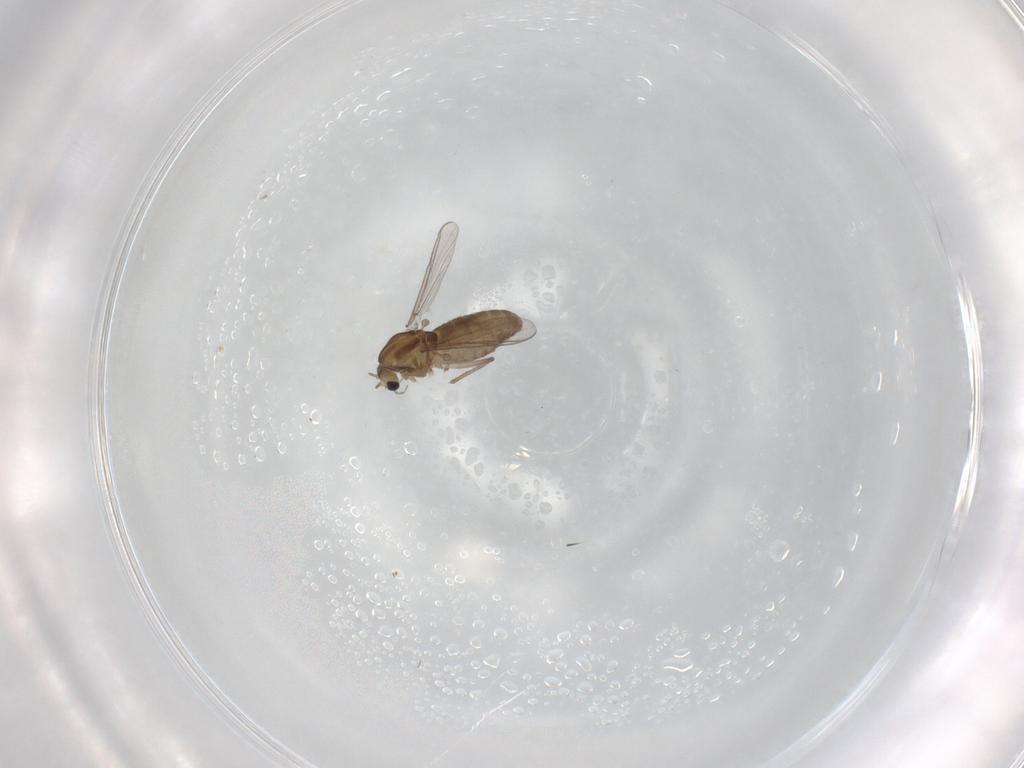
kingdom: Animalia
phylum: Arthropoda
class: Insecta
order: Diptera
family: Chironomidae
